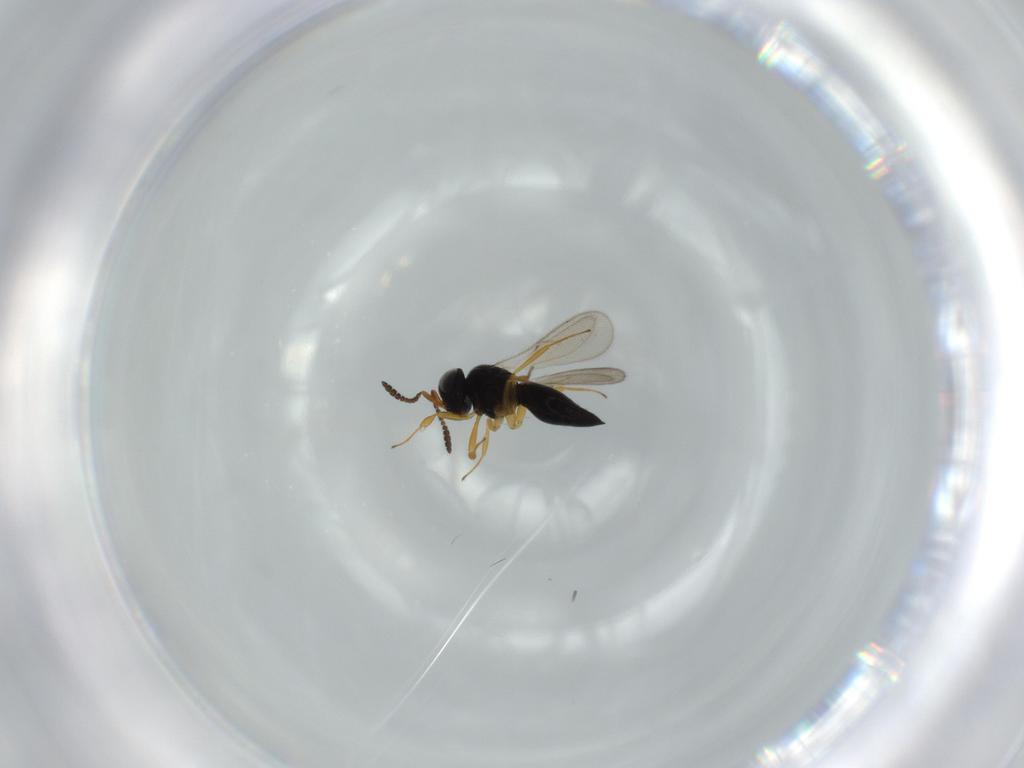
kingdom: Animalia
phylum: Arthropoda
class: Insecta
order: Hymenoptera
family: Scelionidae
